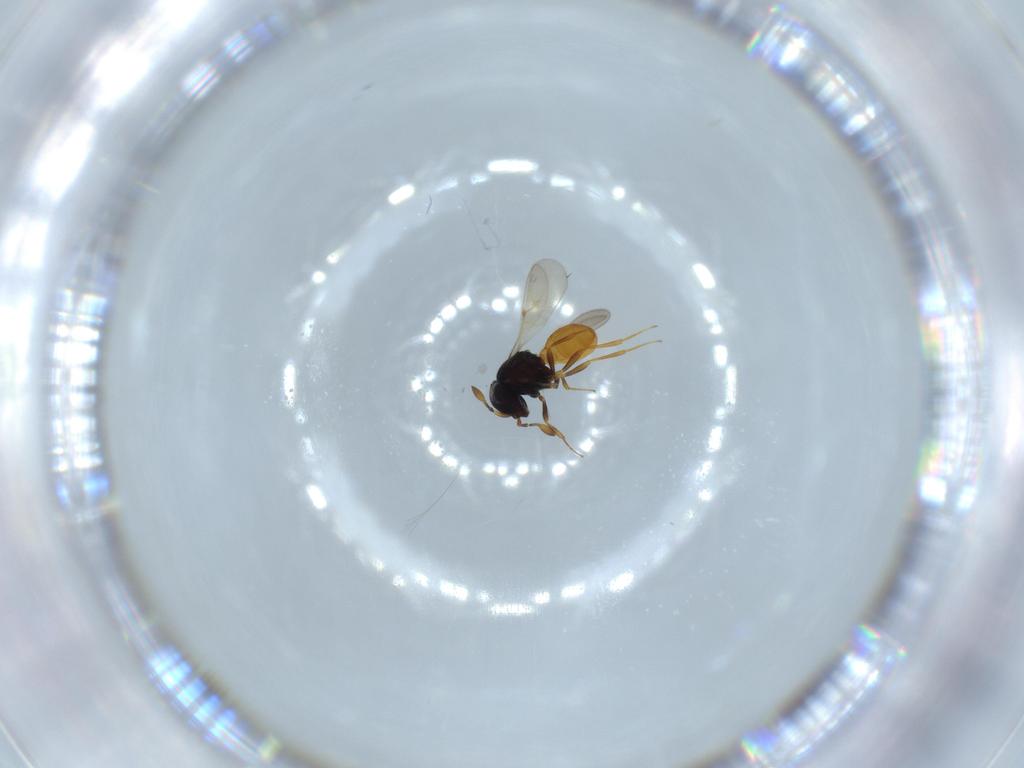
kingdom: Animalia
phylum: Arthropoda
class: Insecta
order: Hymenoptera
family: Scelionidae
